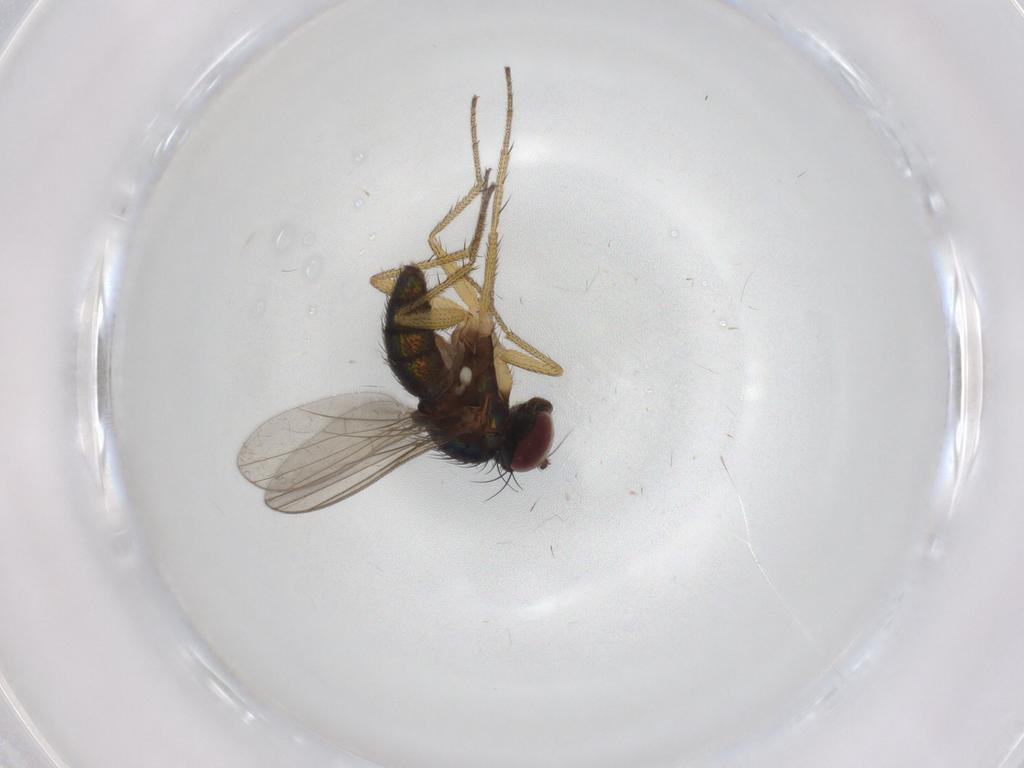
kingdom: Animalia
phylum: Arthropoda
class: Insecta
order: Diptera
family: Dolichopodidae
